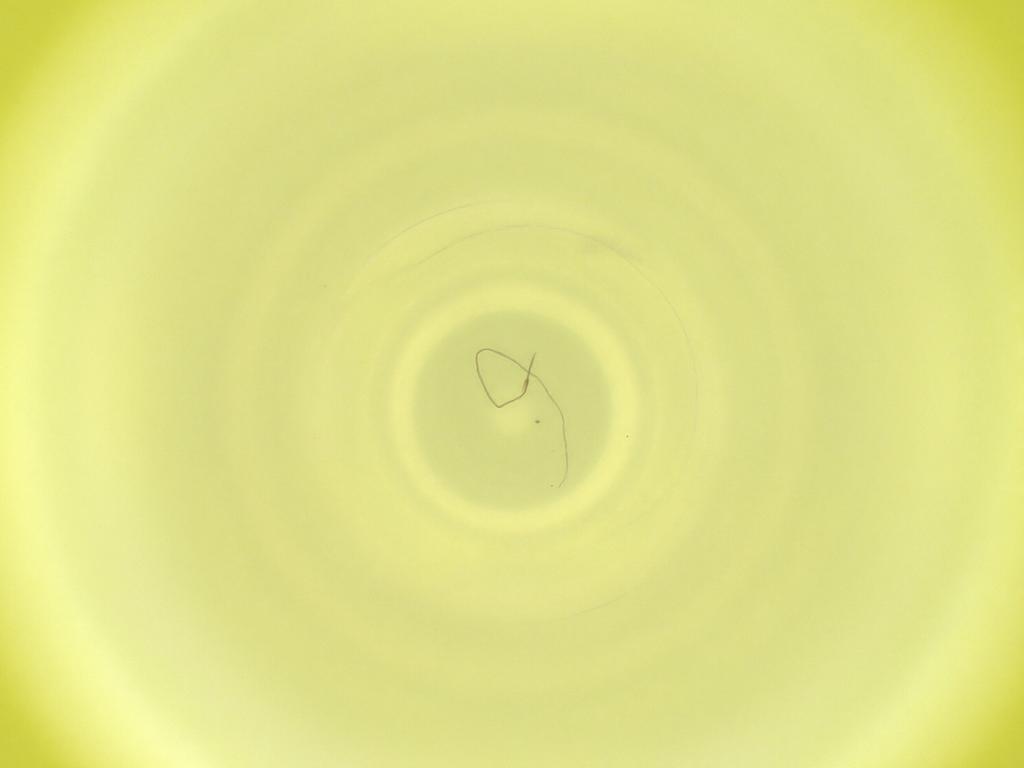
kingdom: Animalia
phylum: Arthropoda
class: Insecta
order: Diptera
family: Cecidomyiidae
